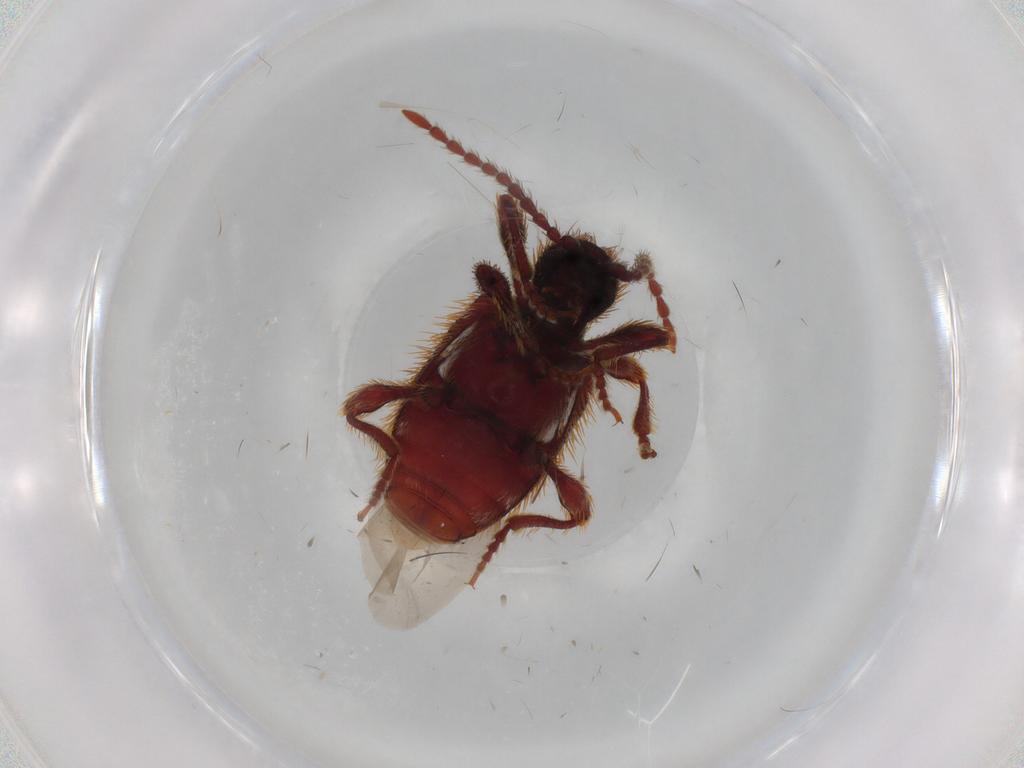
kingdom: Animalia
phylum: Arthropoda
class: Insecta
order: Coleoptera
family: Ptinidae
